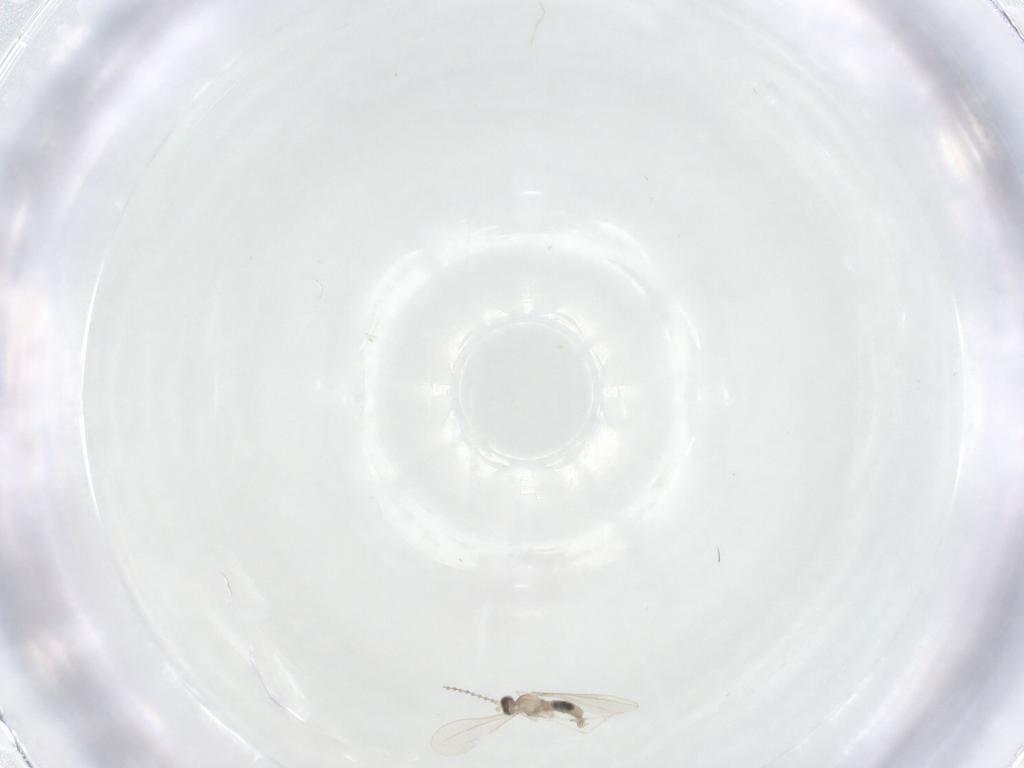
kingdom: Animalia
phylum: Arthropoda
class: Insecta
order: Diptera
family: Cecidomyiidae
